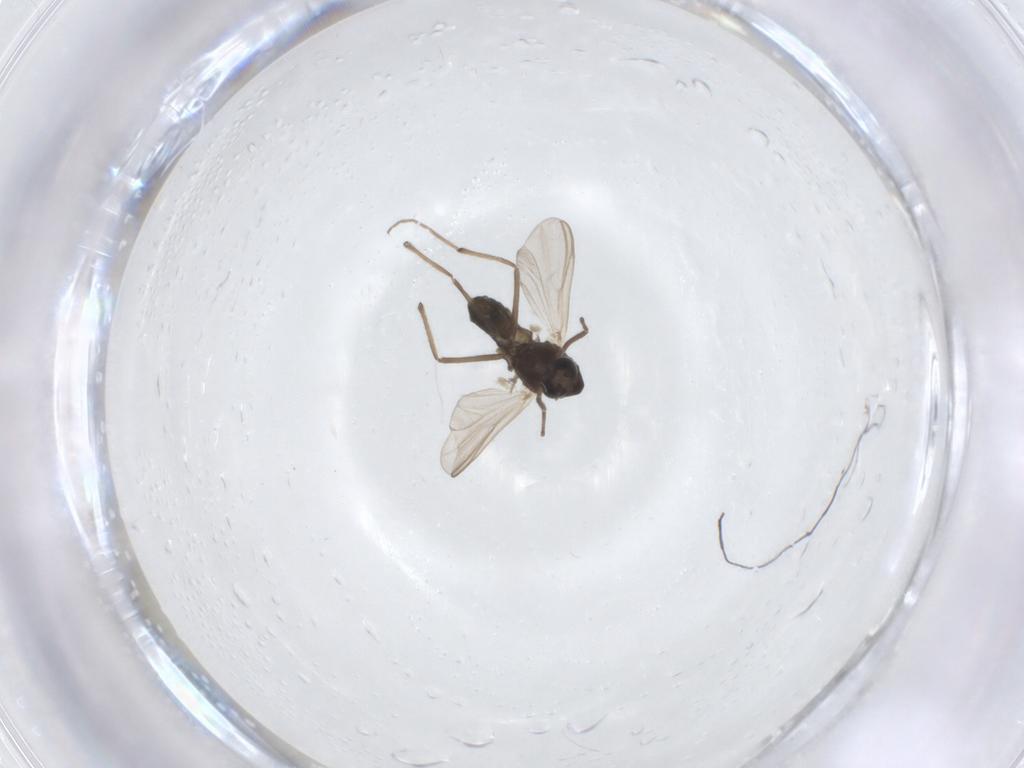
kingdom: Animalia
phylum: Arthropoda
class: Insecta
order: Diptera
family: Chironomidae
